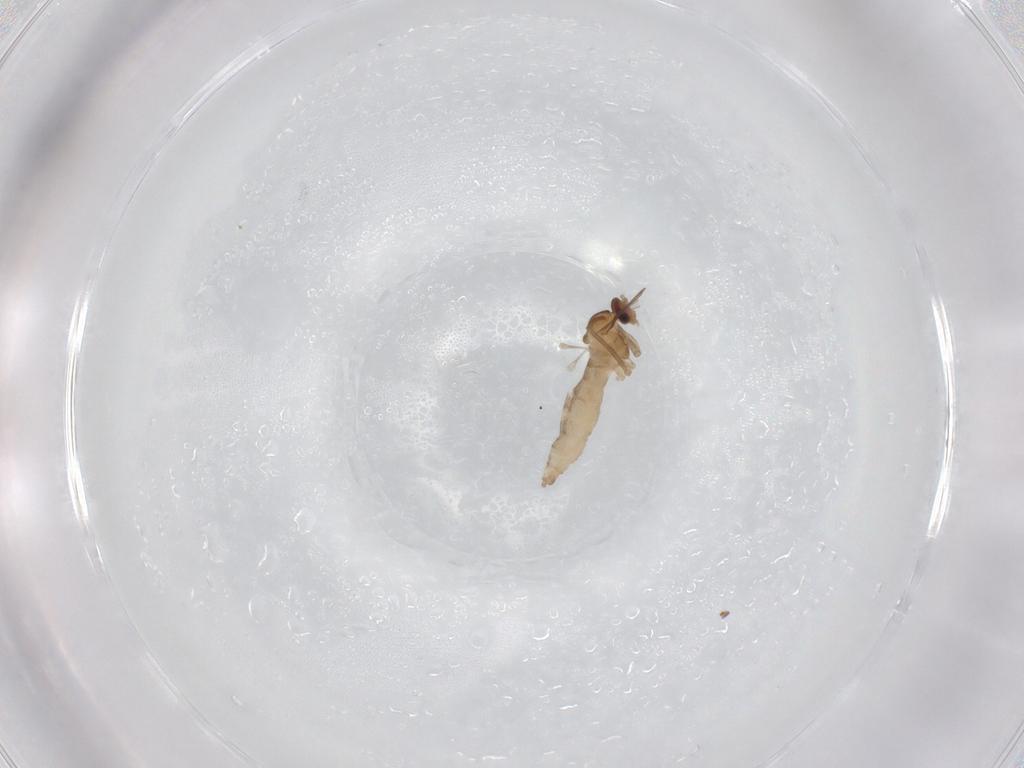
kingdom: Animalia
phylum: Arthropoda
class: Insecta
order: Diptera
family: Cecidomyiidae
